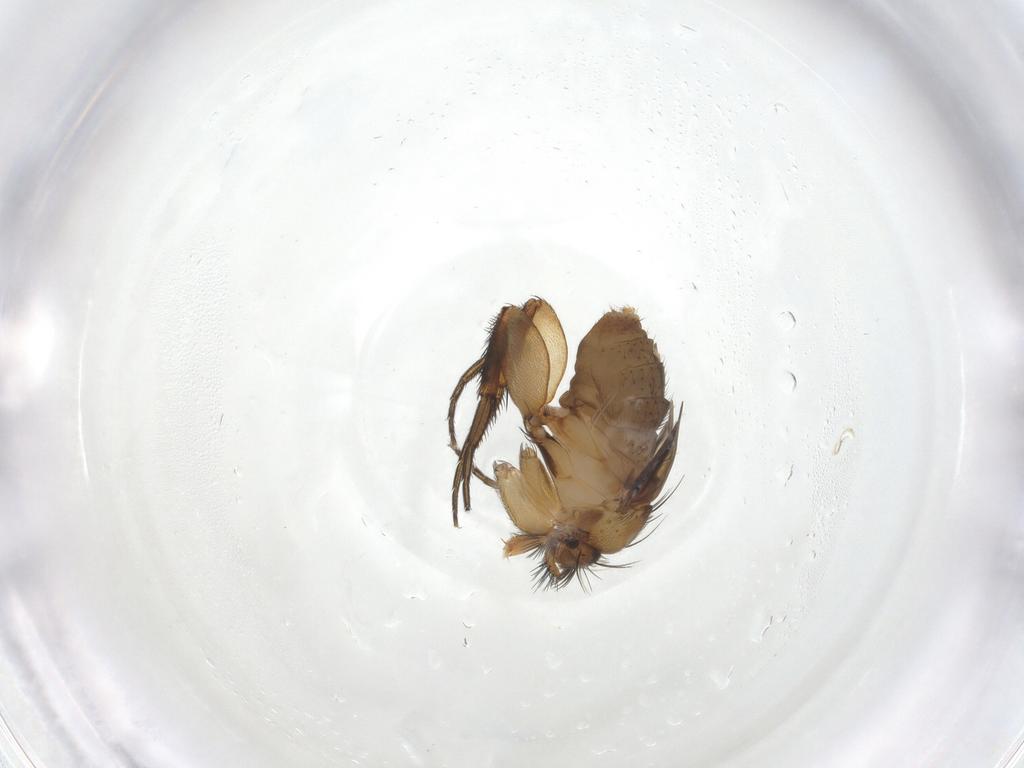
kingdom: Animalia
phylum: Arthropoda
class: Insecta
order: Diptera
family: Phoridae
